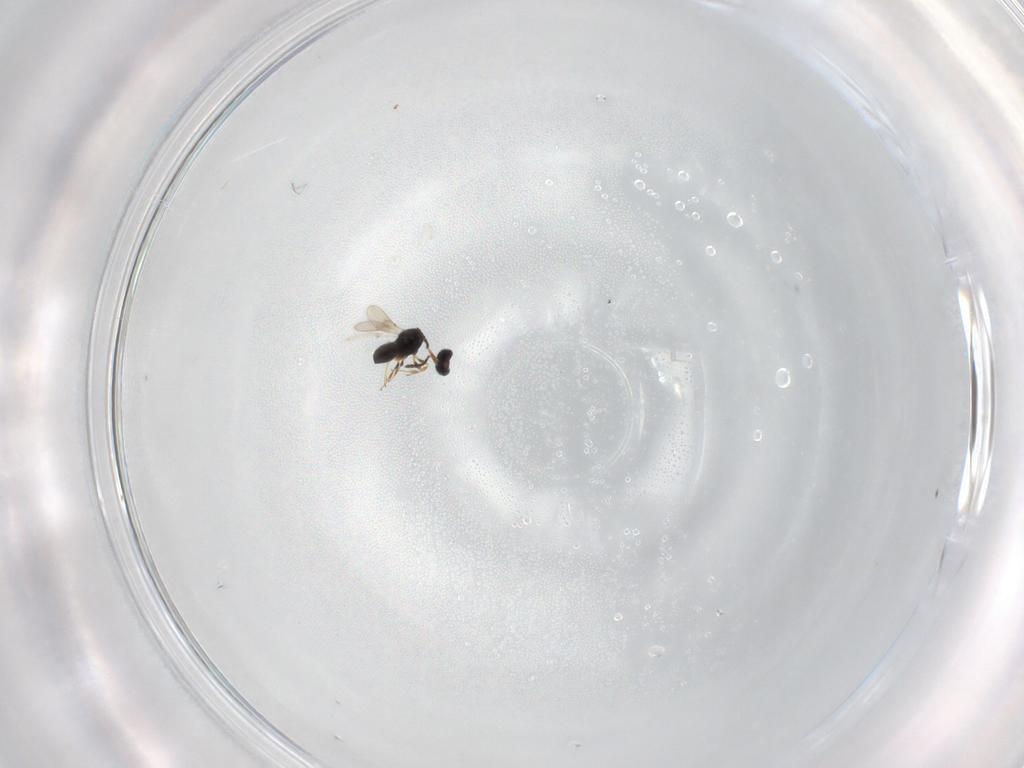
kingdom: Animalia
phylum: Arthropoda
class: Insecta
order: Hymenoptera
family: Scelionidae
